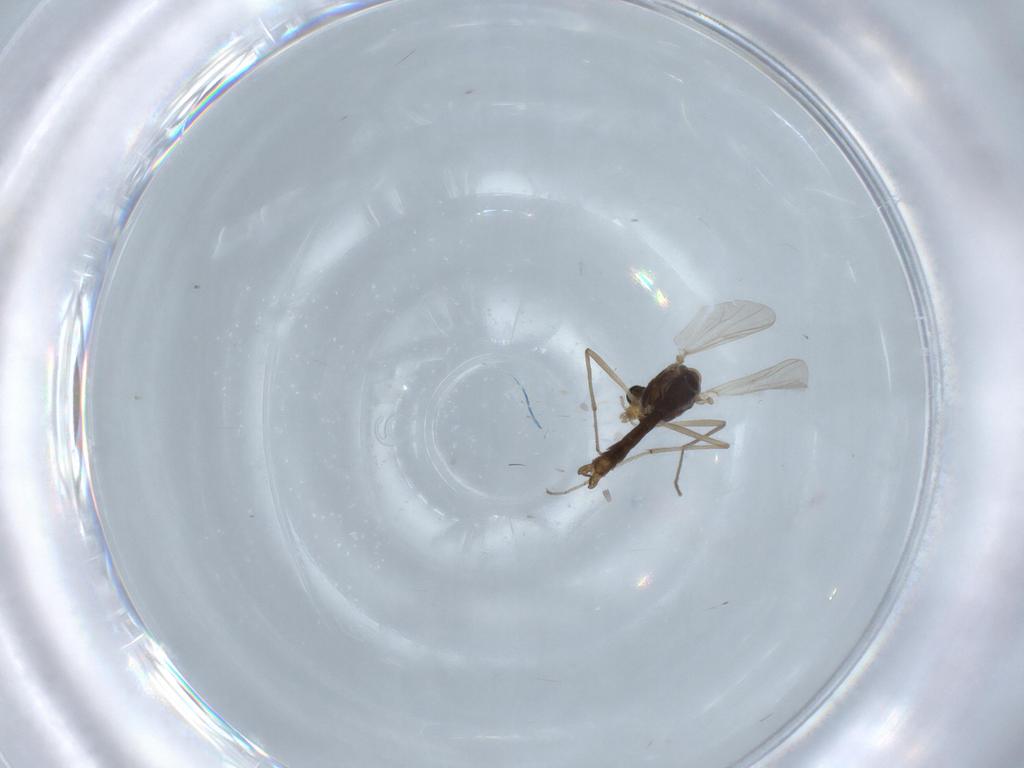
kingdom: Animalia
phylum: Arthropoda
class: Insecta
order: Diptera
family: Chironomidae
